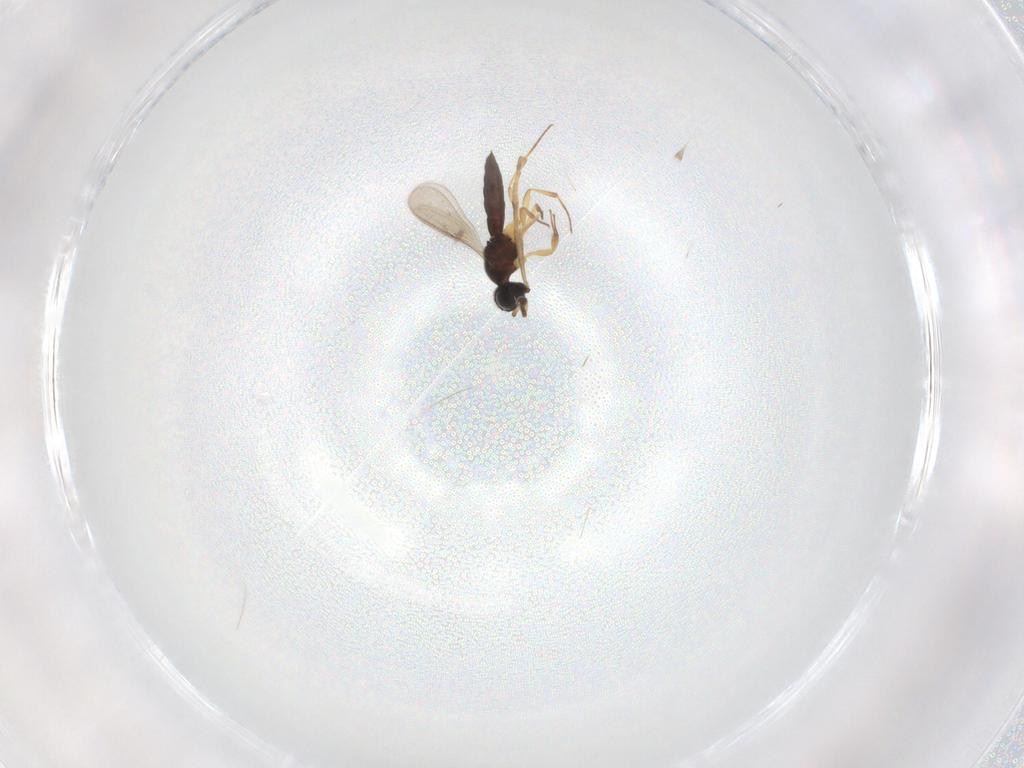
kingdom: Animalia
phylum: Arthropoda
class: Insecta
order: Hymenoptera
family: Scelionidae
